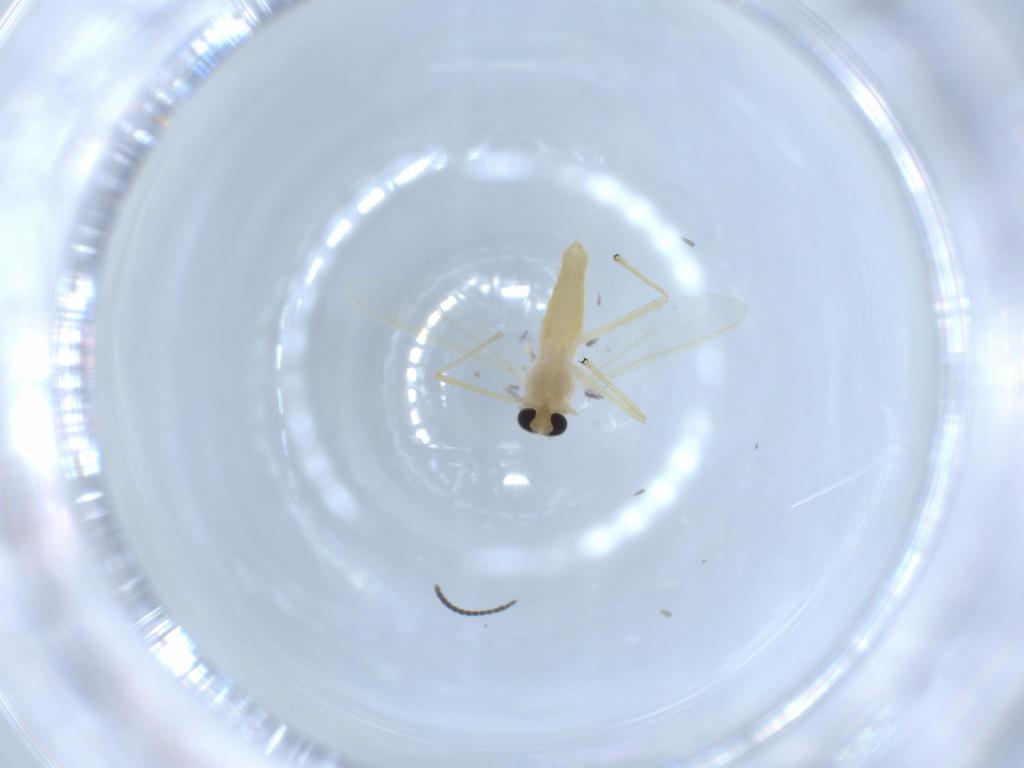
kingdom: Animalia
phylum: Arthropoda
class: Insecta
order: Diptera
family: Chironomidae
